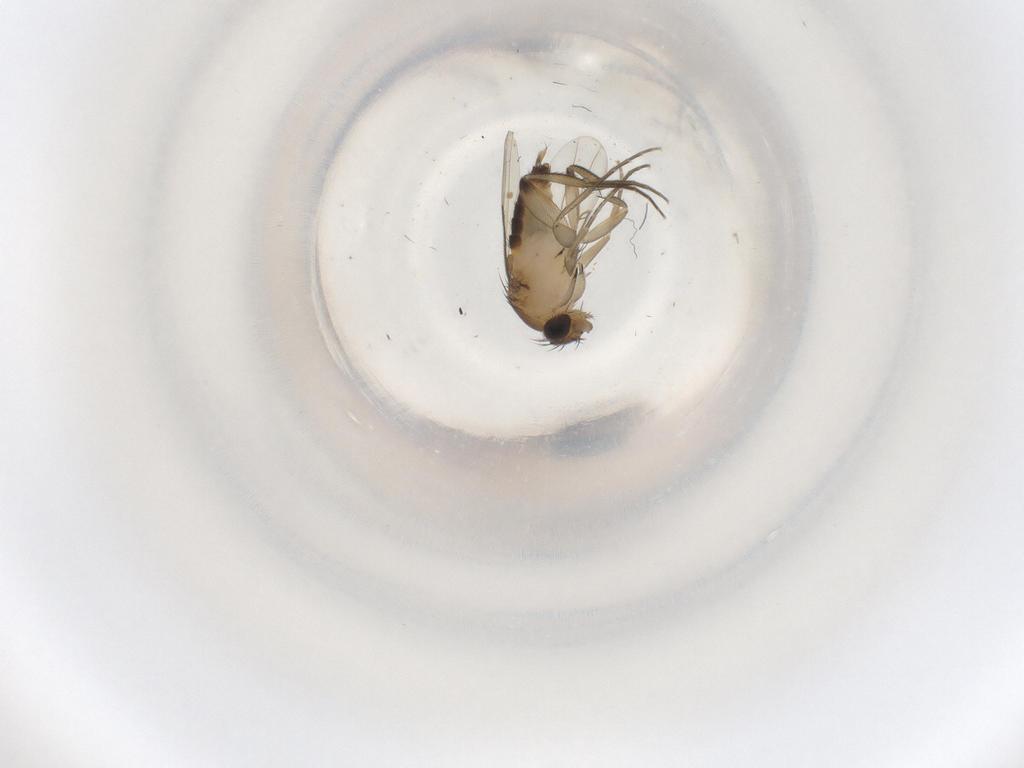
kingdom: Animalia
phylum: Arthropoda
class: Insecta
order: Diptera
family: Phoridae
